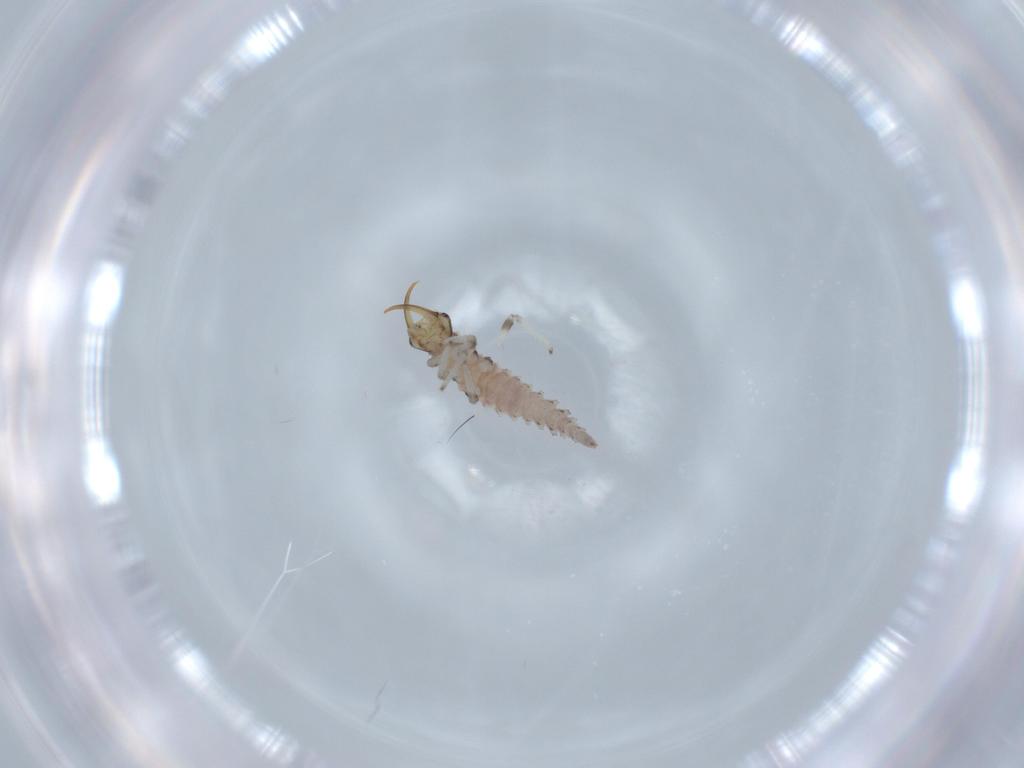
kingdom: Animalia
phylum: Arthropoda
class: Insecta
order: Neuroptera
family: Chrysopidae
